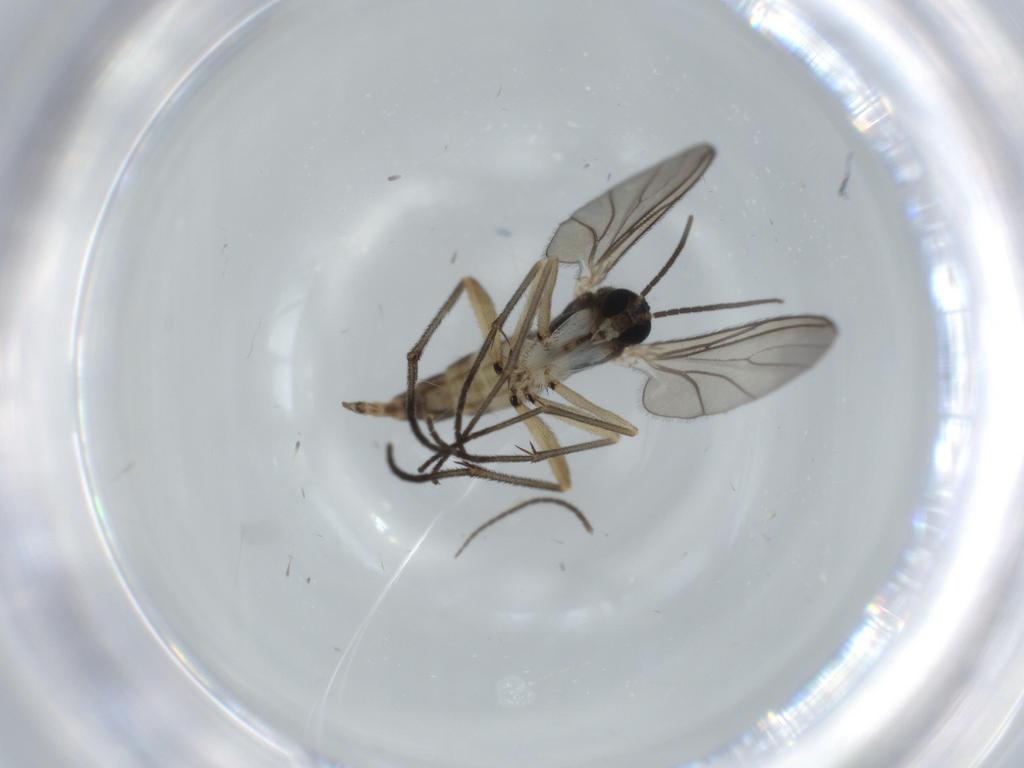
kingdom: Animalia
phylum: Arthropoda
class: Insecta
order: Diptera
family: Sciaridae
